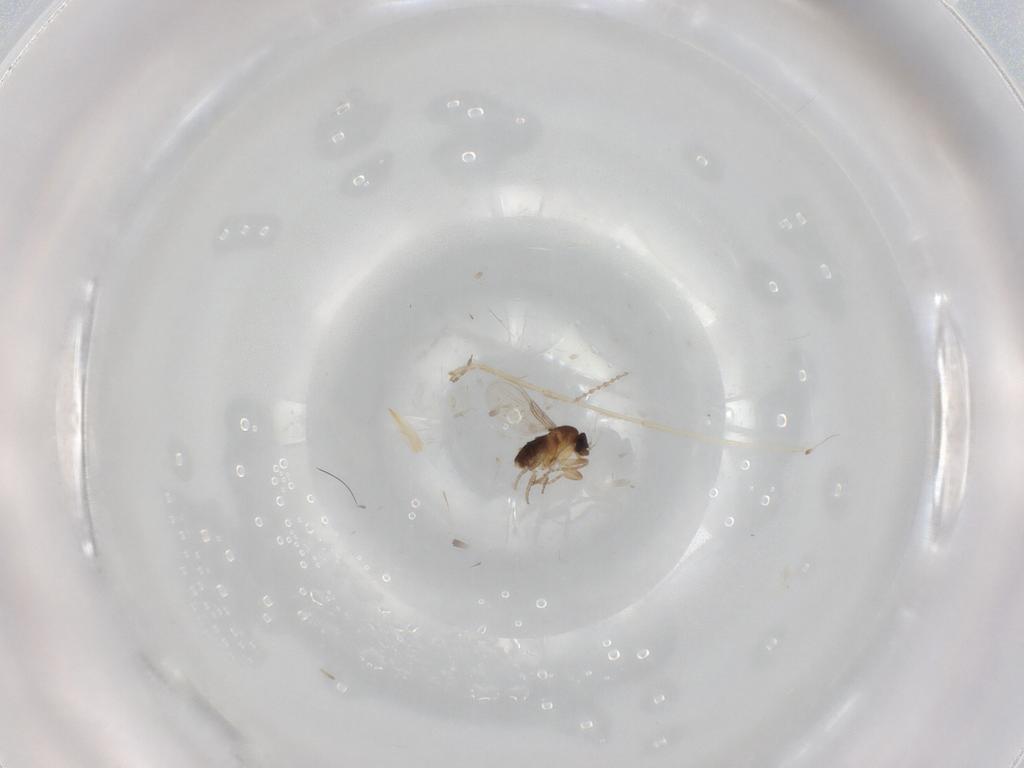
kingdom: Animalia
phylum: Arthropoda
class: Insecta
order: Diptera
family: Phoridae
